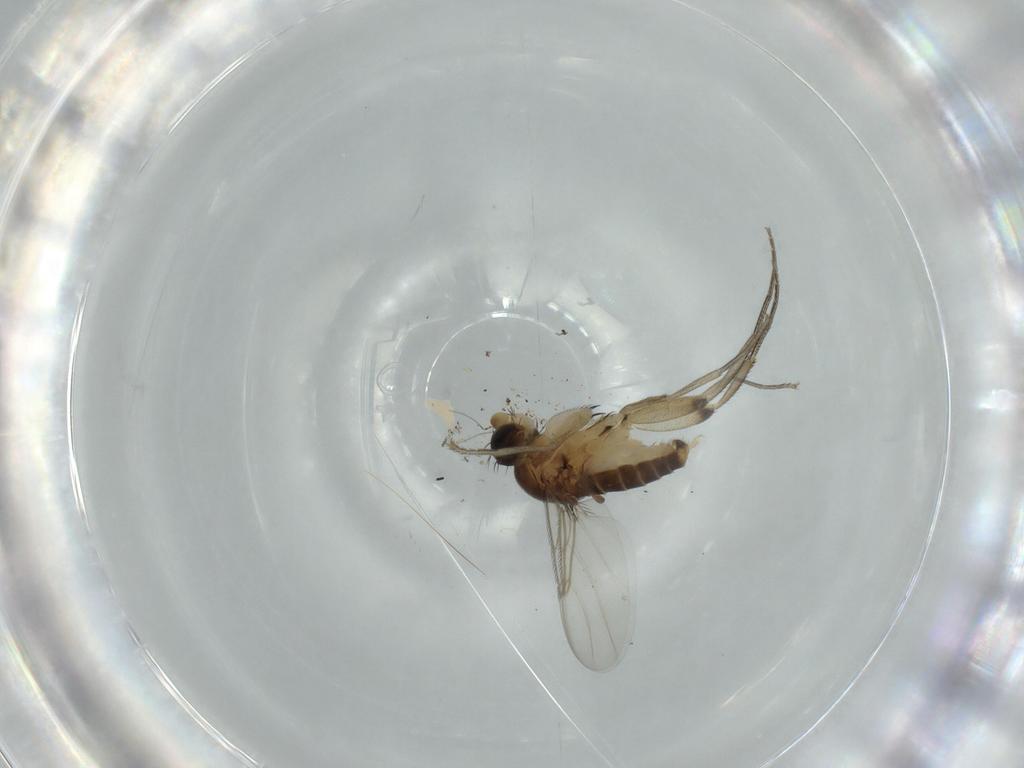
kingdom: Animalia
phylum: Arthropoda
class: Insecta
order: Diptera
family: Phoridae
